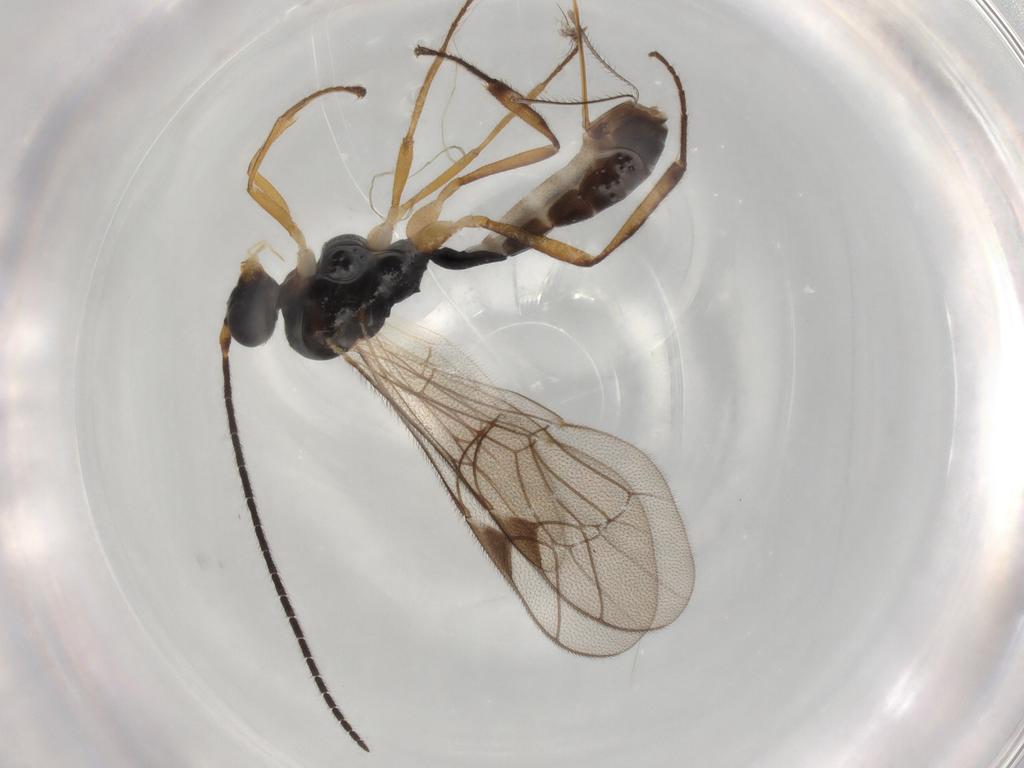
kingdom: Animalia
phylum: Arthropoda
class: Insecta
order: Hymenoptera
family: Ichneumonidae
